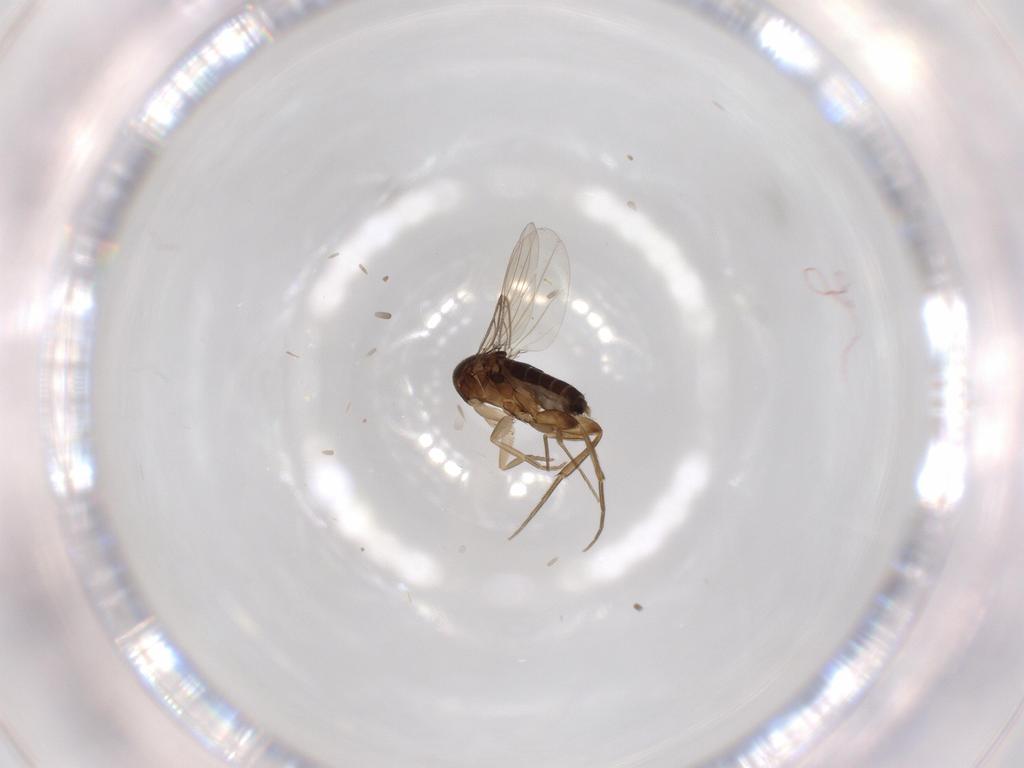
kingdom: Animalia
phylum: Arthropoda
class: Insecta
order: Diptera
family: Phoridae
